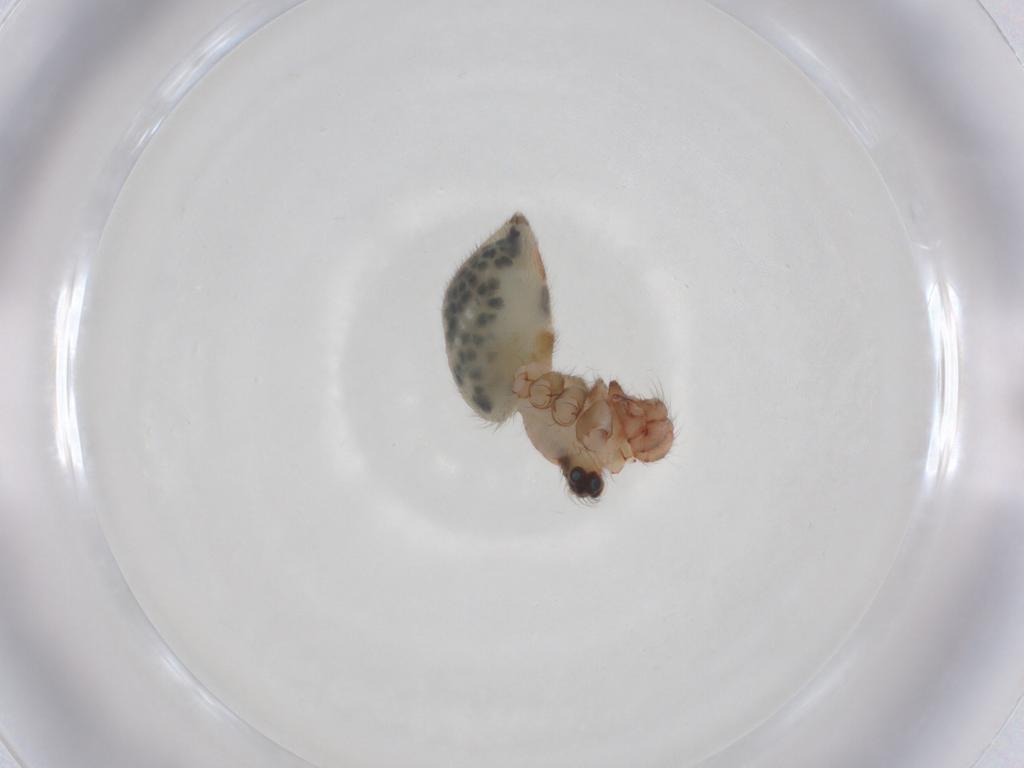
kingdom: Animalia
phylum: Arthropoda
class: Arachnida
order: Araneae
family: Pholcidae
